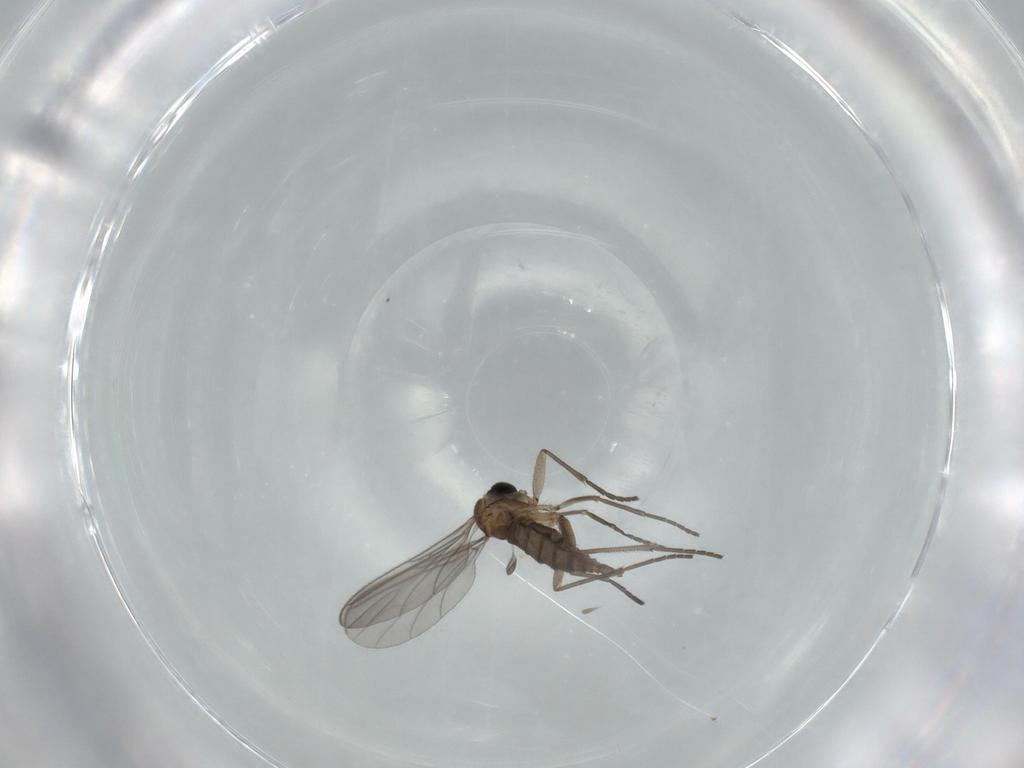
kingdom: Animalia
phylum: Arthropoda
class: Insecta
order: Diptera
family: Sciaridae
